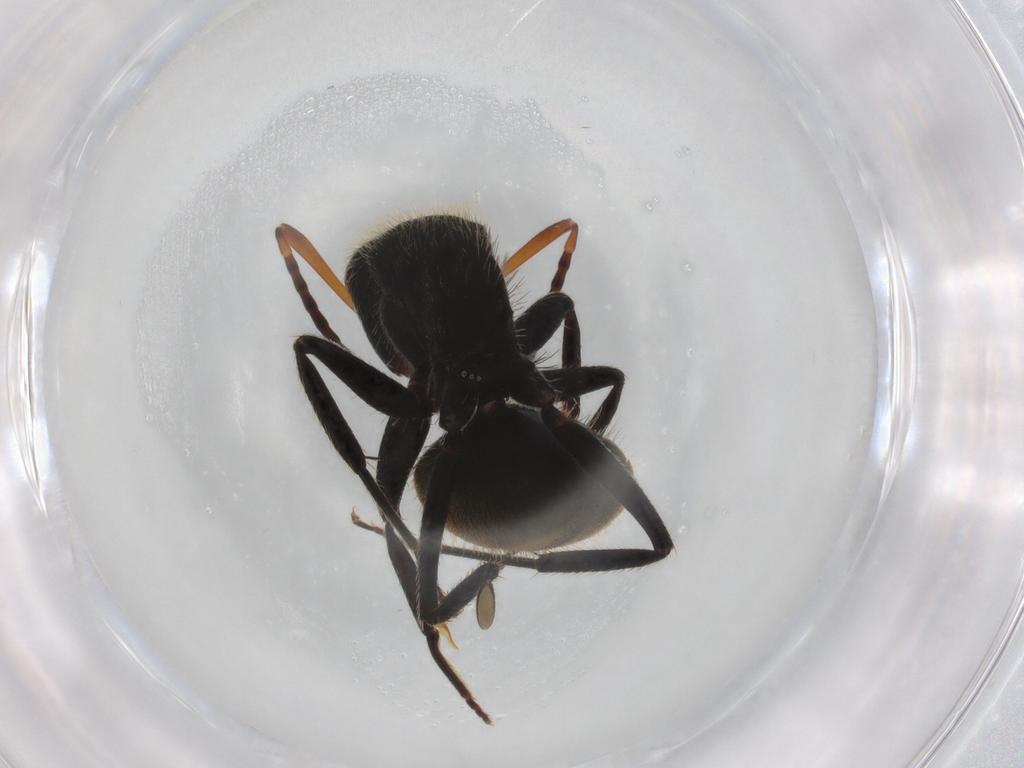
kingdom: Animalia
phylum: Arthropoda
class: Insecta
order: Hymenoptera
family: Formicidae
